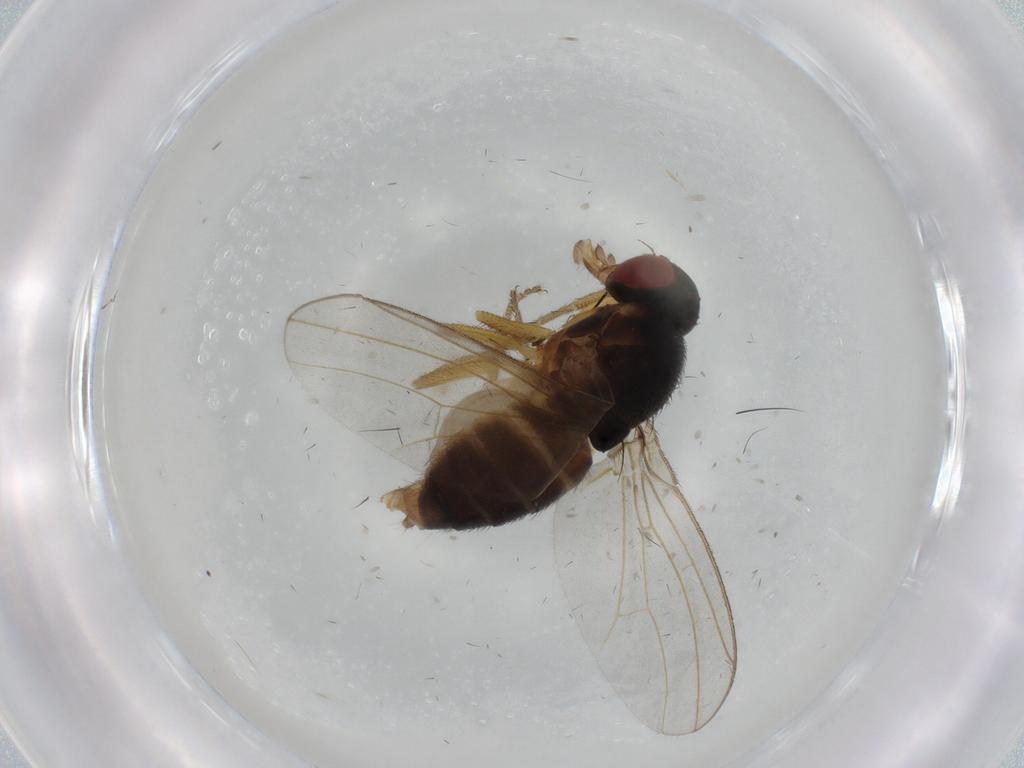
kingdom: Animalia
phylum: Arthropoda
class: Insecta
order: Diptera
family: Drosophilidae
